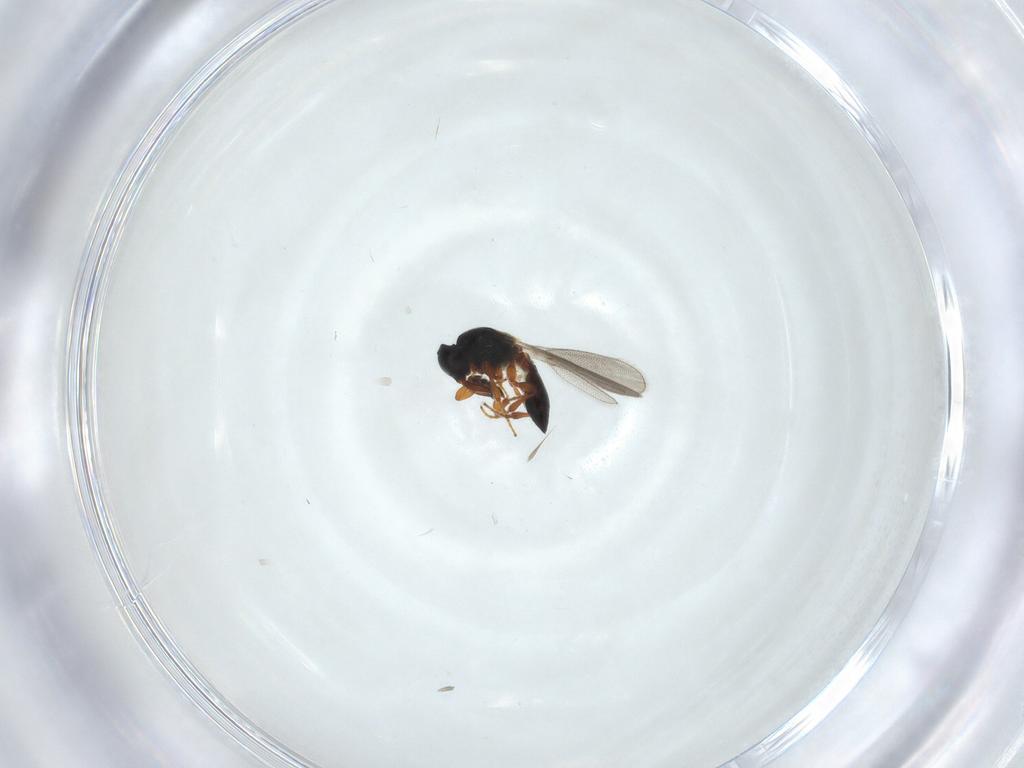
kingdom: Animalia
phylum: Arthropoda
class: Insecta
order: Hymenoptera
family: Platygastridae
